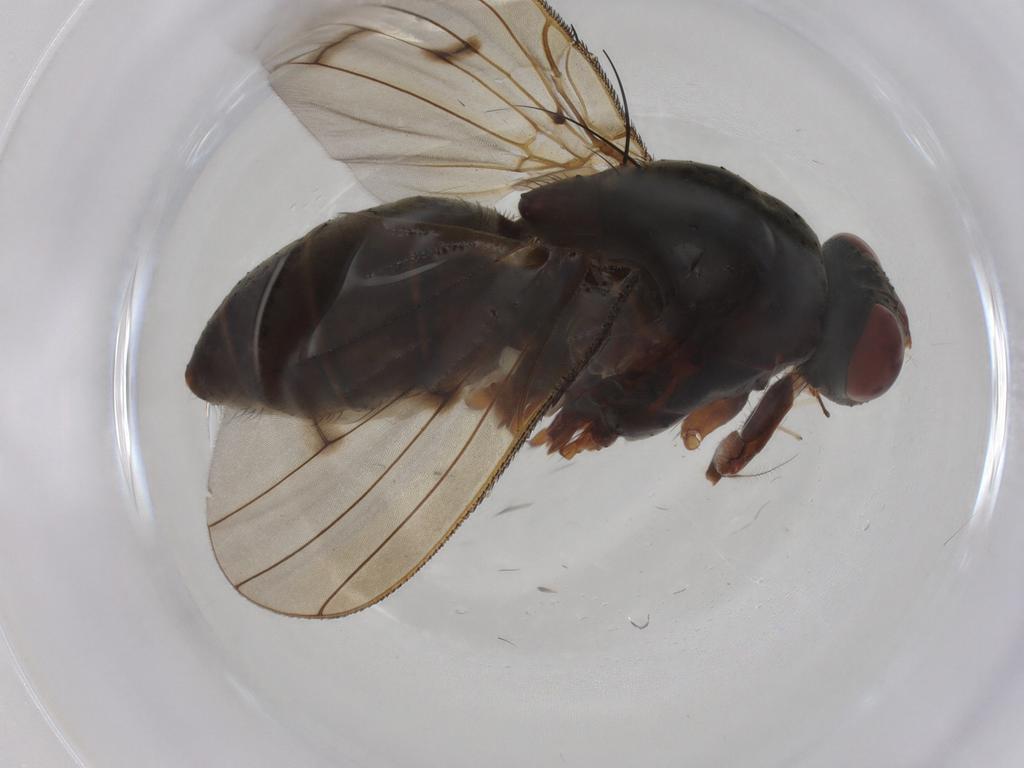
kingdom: Animalia
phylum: Arthropoda
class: Insecta
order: Diptera
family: Anthomyiidae
